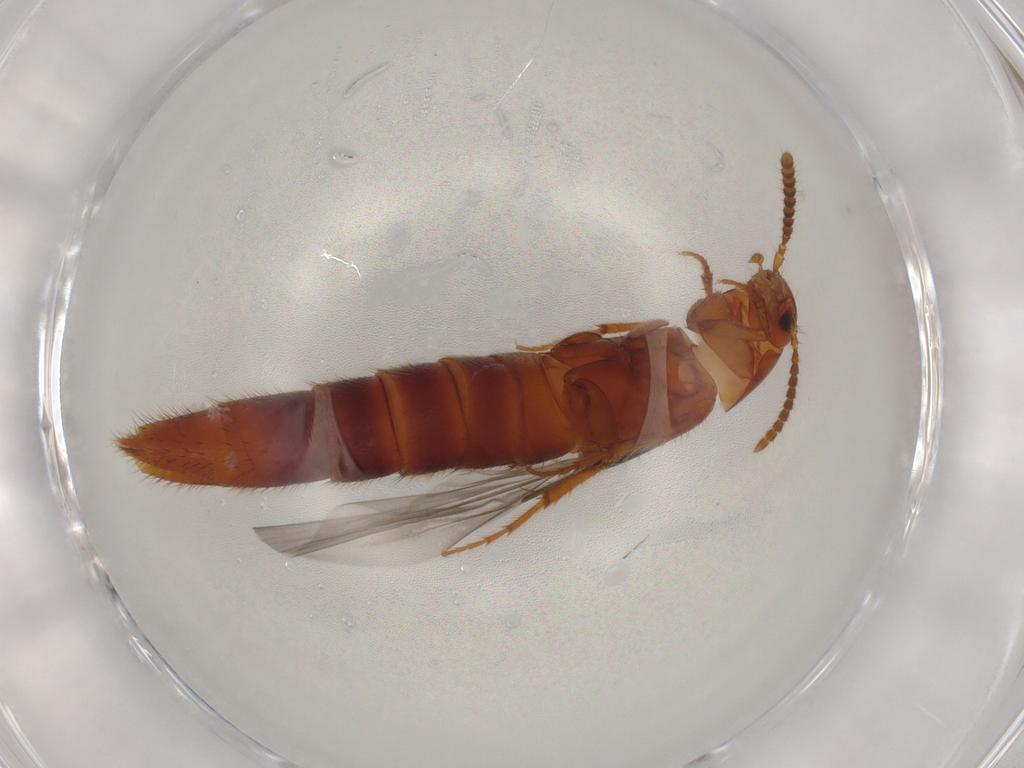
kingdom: Animalia
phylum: Arthropoda
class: Insecta
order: Coleoptera
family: Staphylinidae
